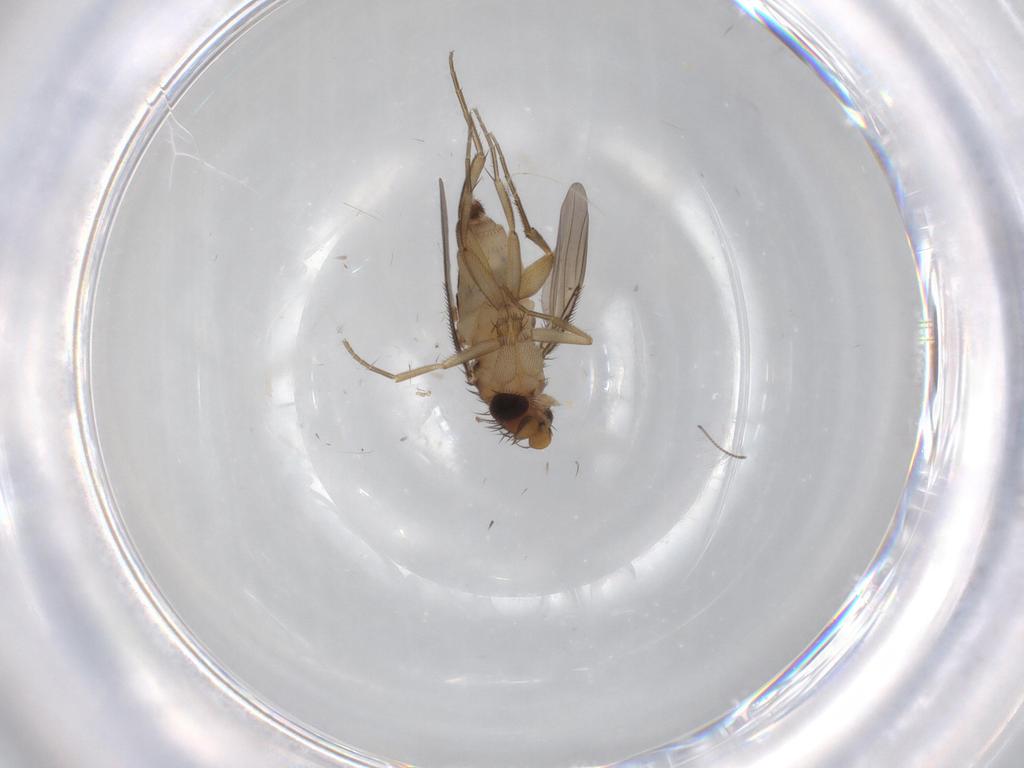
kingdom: Animalia
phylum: Arthropoda
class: Insecta
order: Diptera
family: Phoridae
